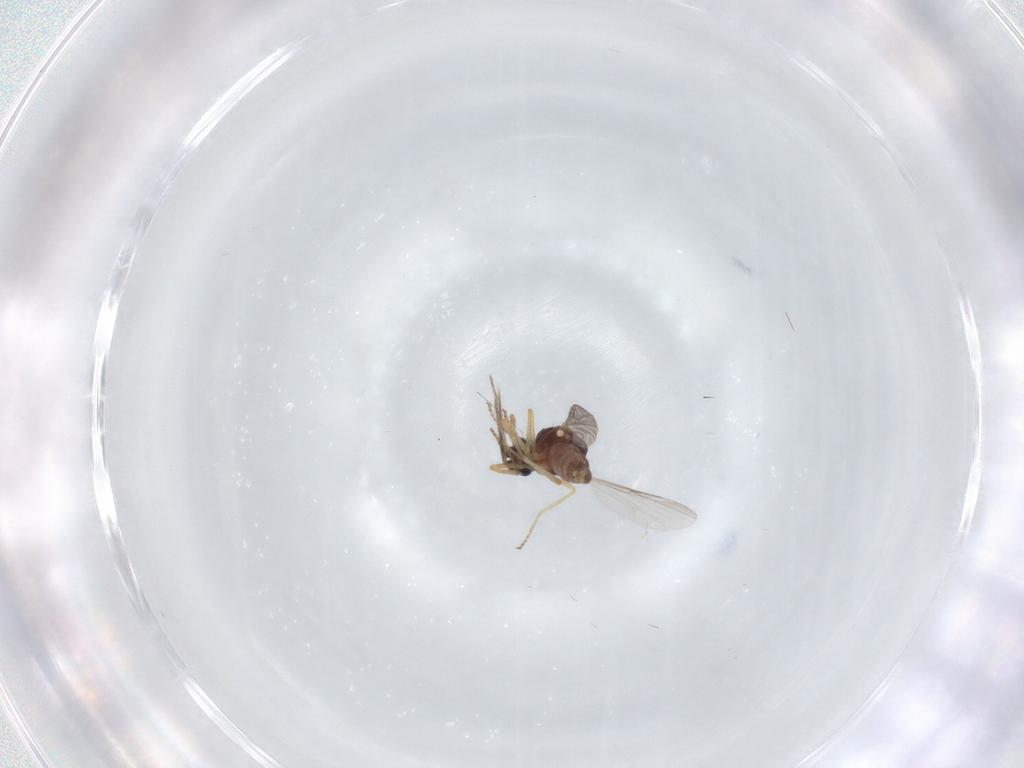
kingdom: Animalia
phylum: Arthropoda
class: Insecta
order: Diptera
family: Ceratopogonidae
